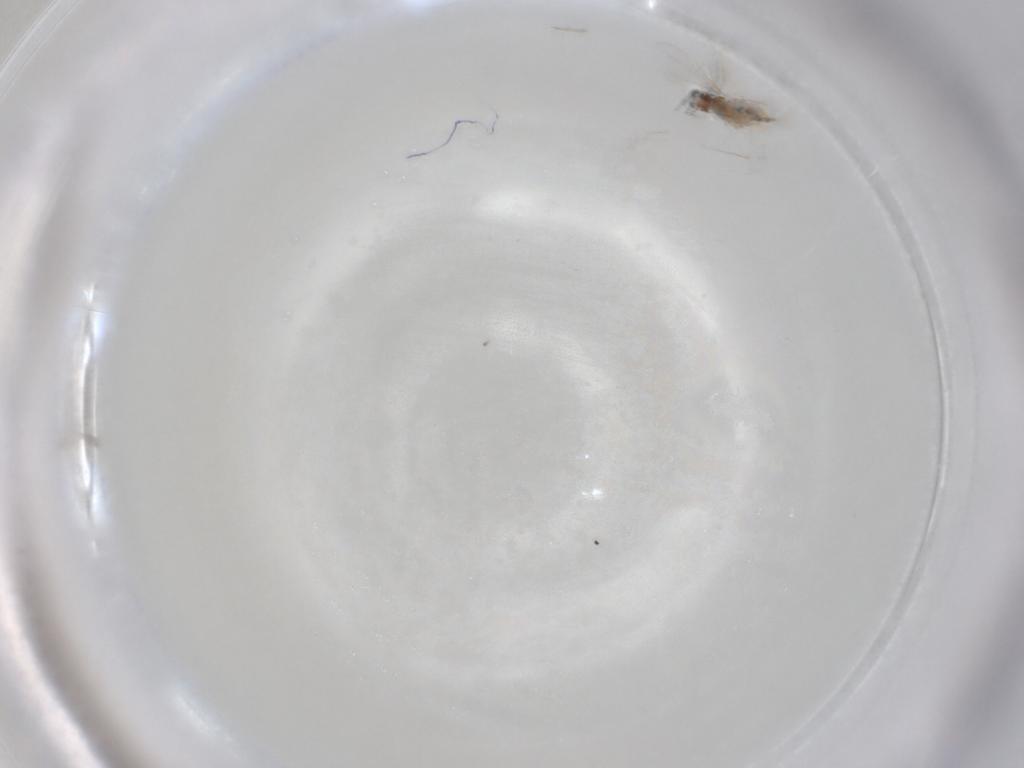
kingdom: Animalia
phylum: Arthropoda
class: Insecta
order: Diptera
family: Cecidomyiidae
